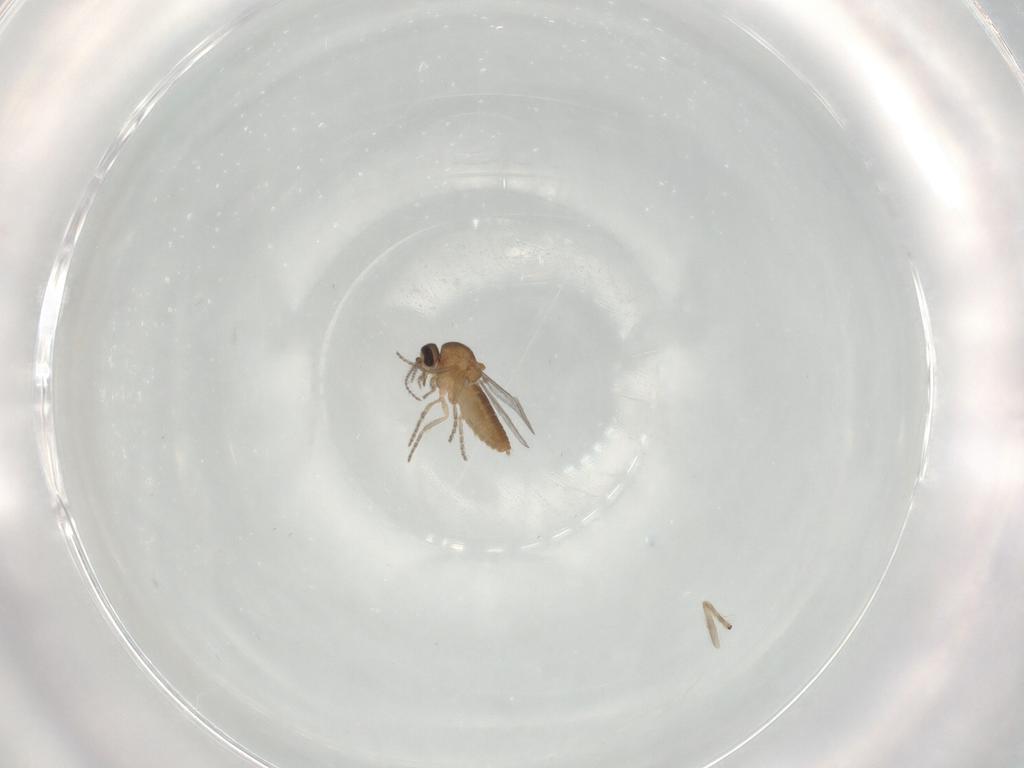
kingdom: Animalia
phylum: Arthropoda
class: Insecta
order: Diptera
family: Ceratopogonidae
